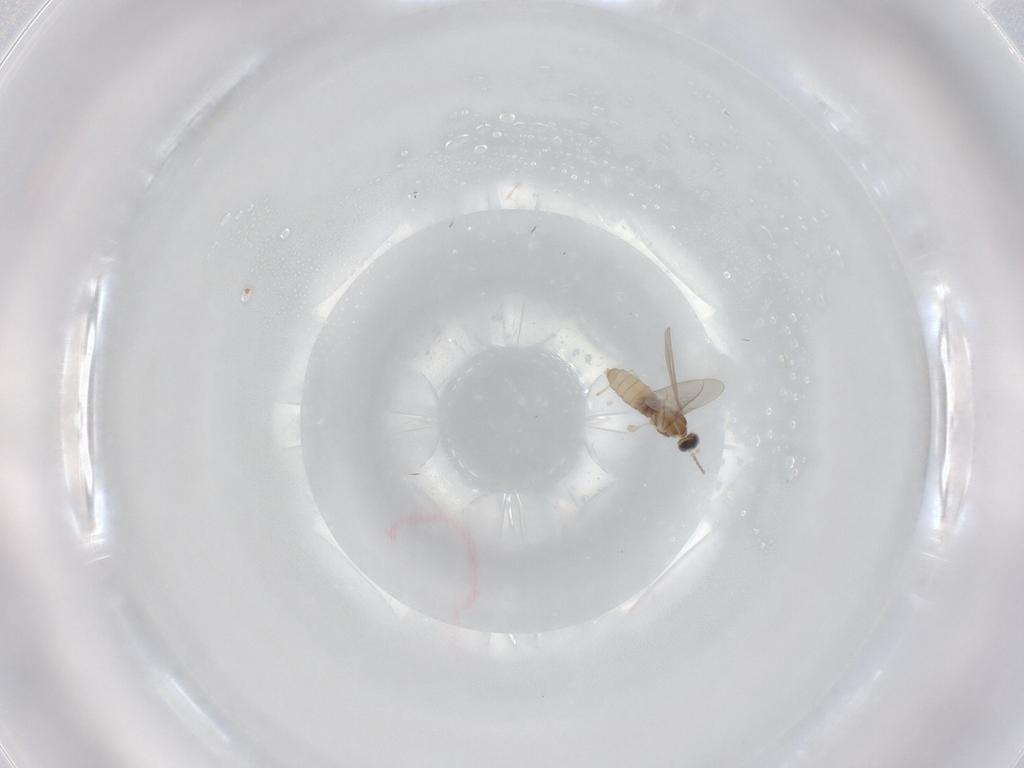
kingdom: Animalia
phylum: Arthropoda
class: Insecta
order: Diptera
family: Cecidomyiidae
